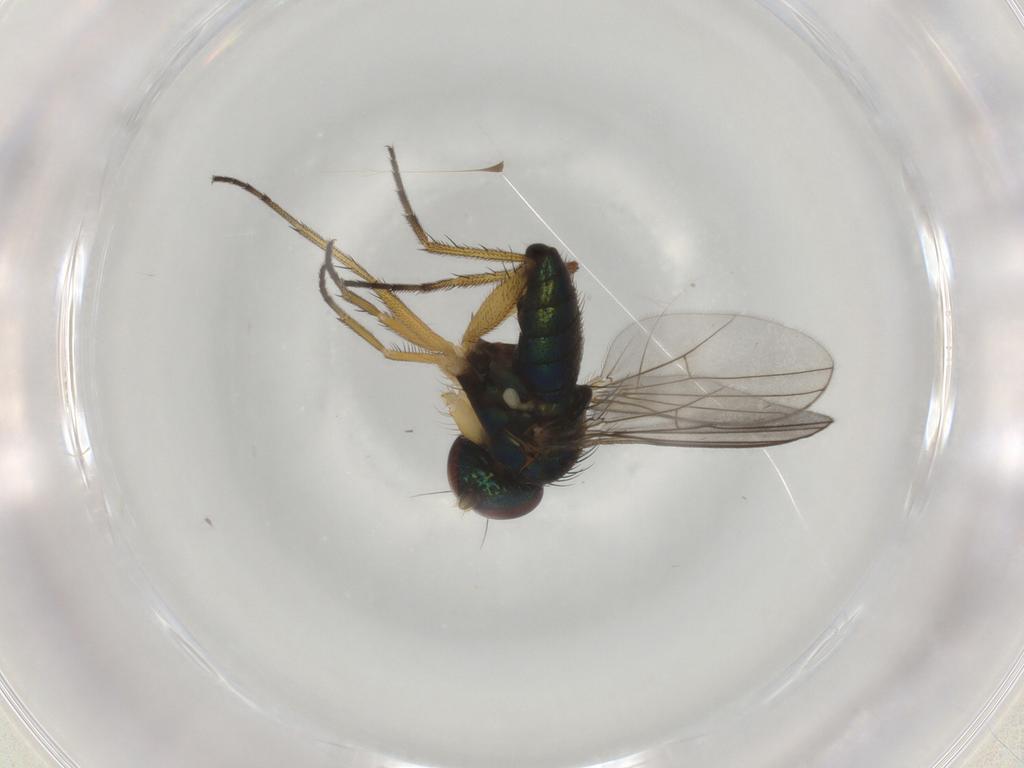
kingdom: Animalia
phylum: Arthropoda
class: Insecta
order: Diptera
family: Dolichopodidae
